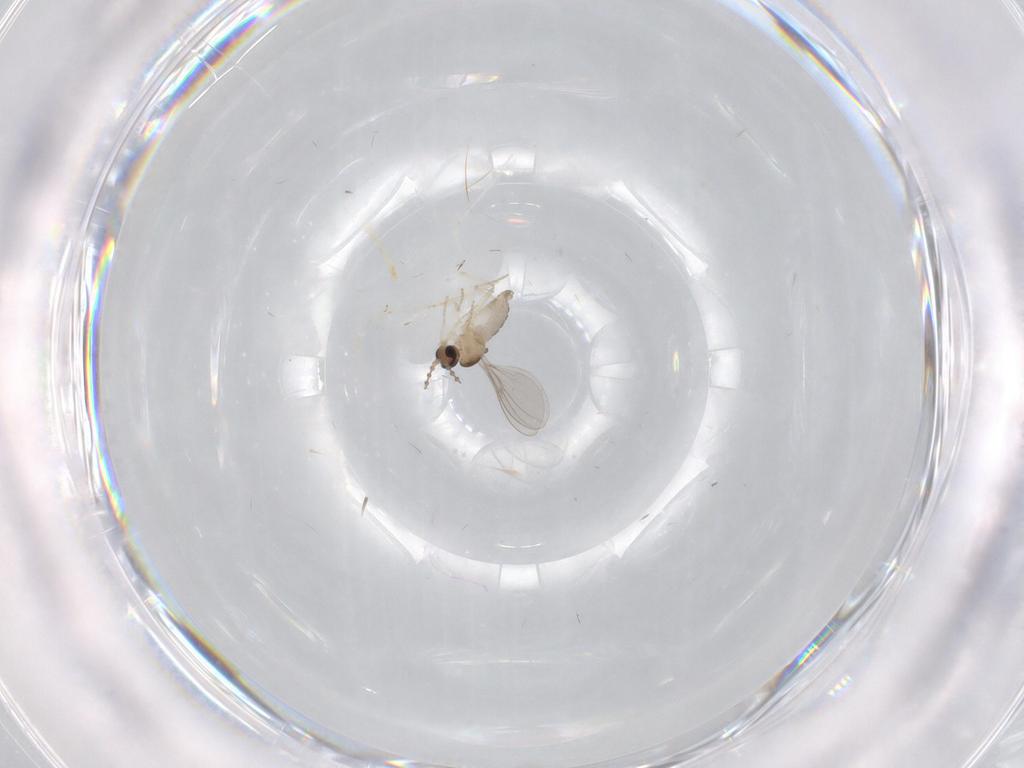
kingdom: Animalia
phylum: Arthropoda
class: Insecta
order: Diptera
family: Cecidomyiidae
